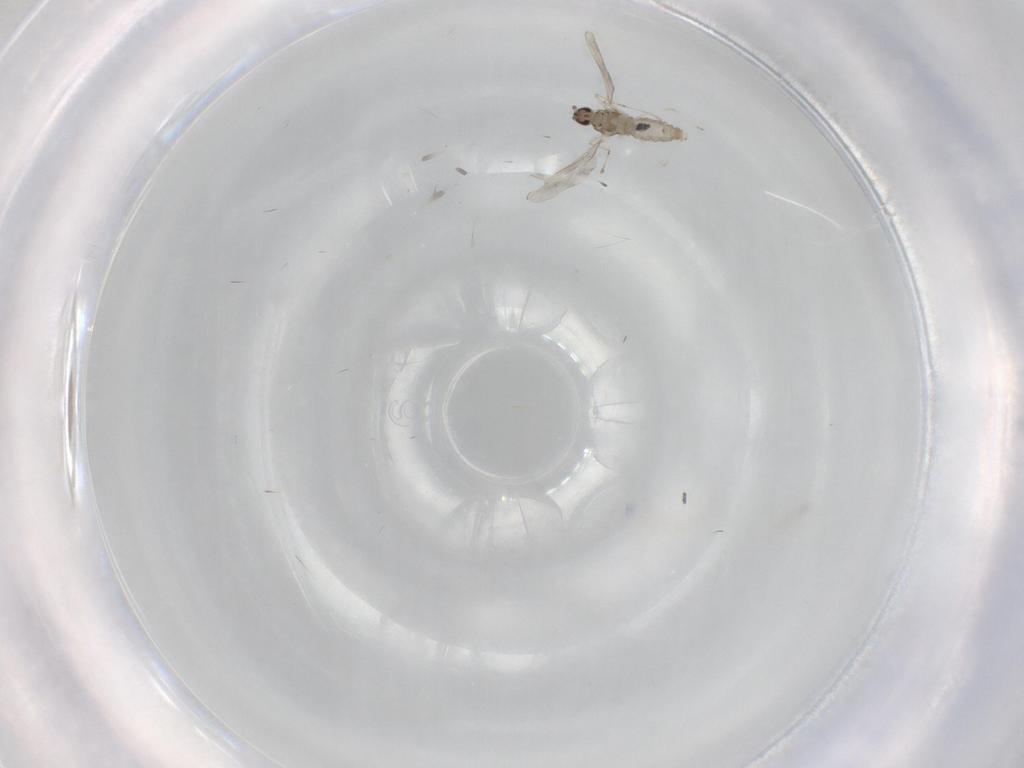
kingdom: Animalia
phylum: Arthropoda
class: Insecta
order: Diptera
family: Cecidomyiidae
